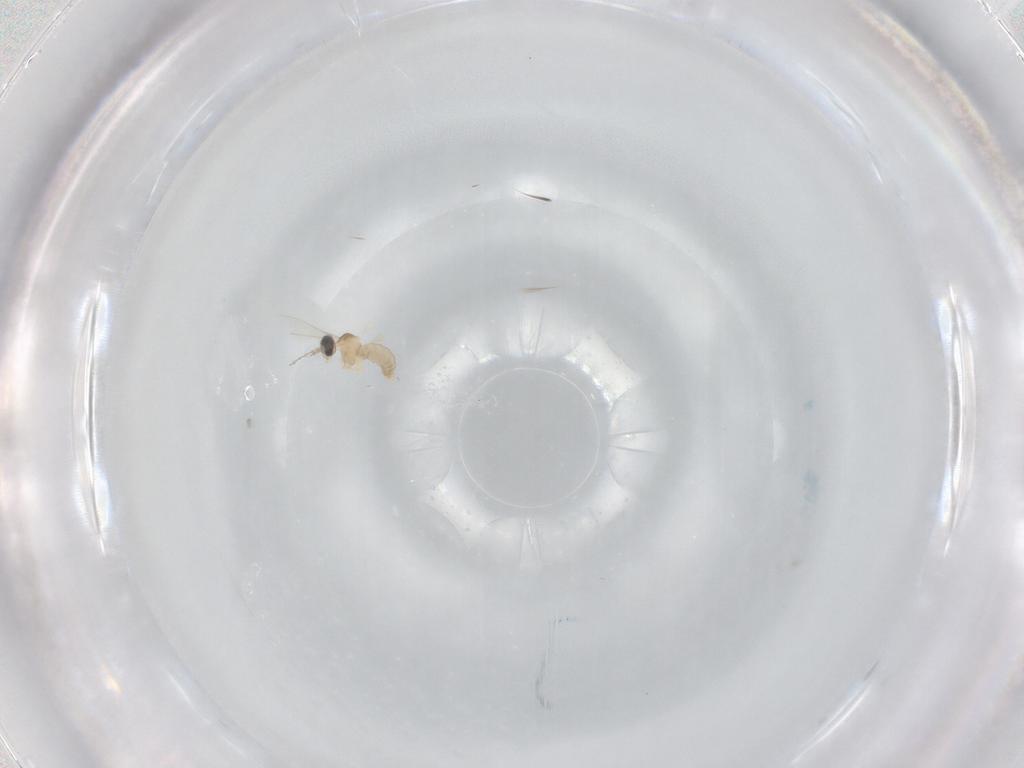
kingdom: Animalia
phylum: Arthropoda
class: Insecta
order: Diptera
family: Cecidomyiidae
